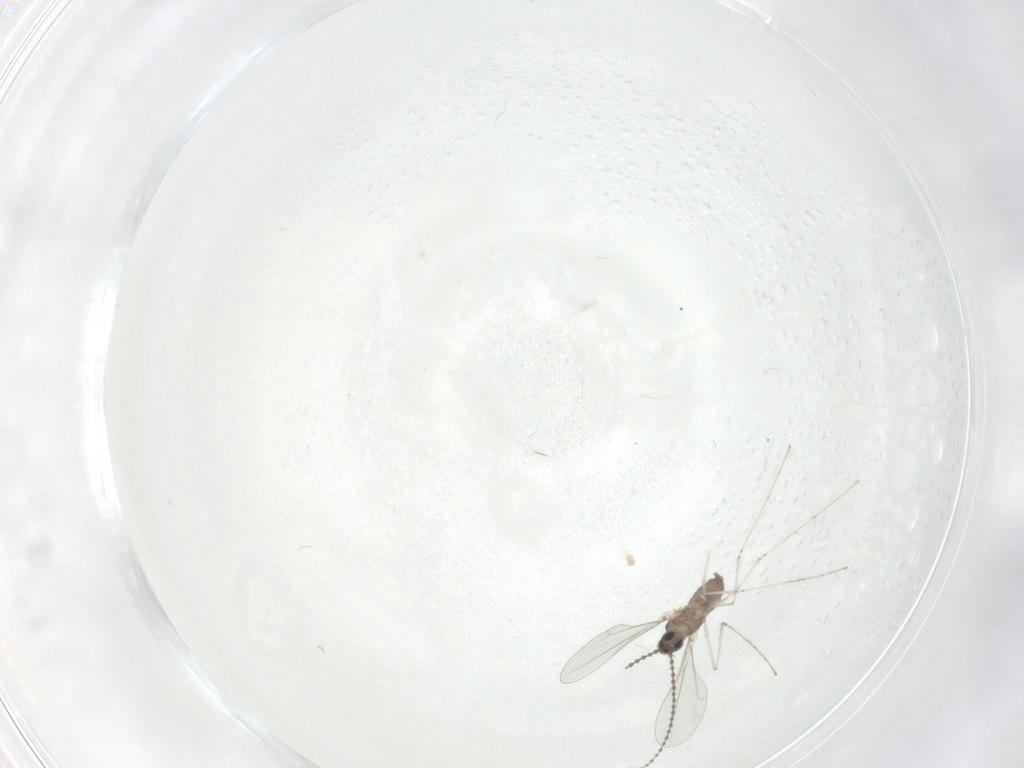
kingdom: Animalia
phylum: Arthropoda
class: Insecta
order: Diptera
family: Cecidomyiidae
